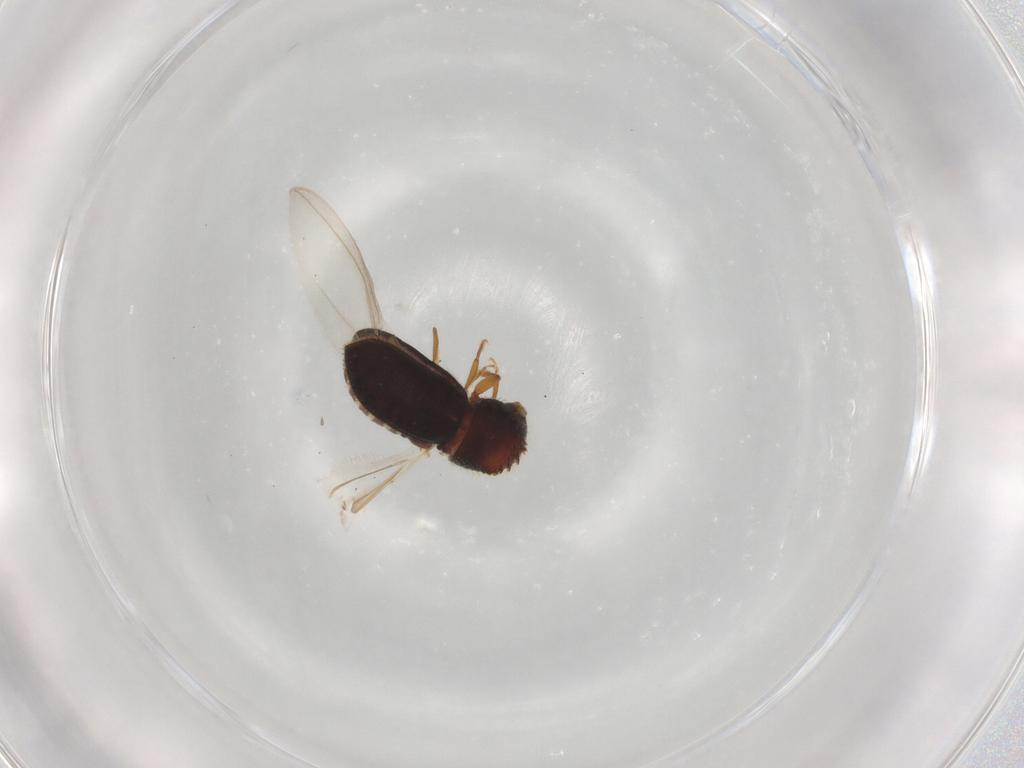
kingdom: Animalia
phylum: Arthropoda
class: Insecta
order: Coleoptera
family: Curculionidae
